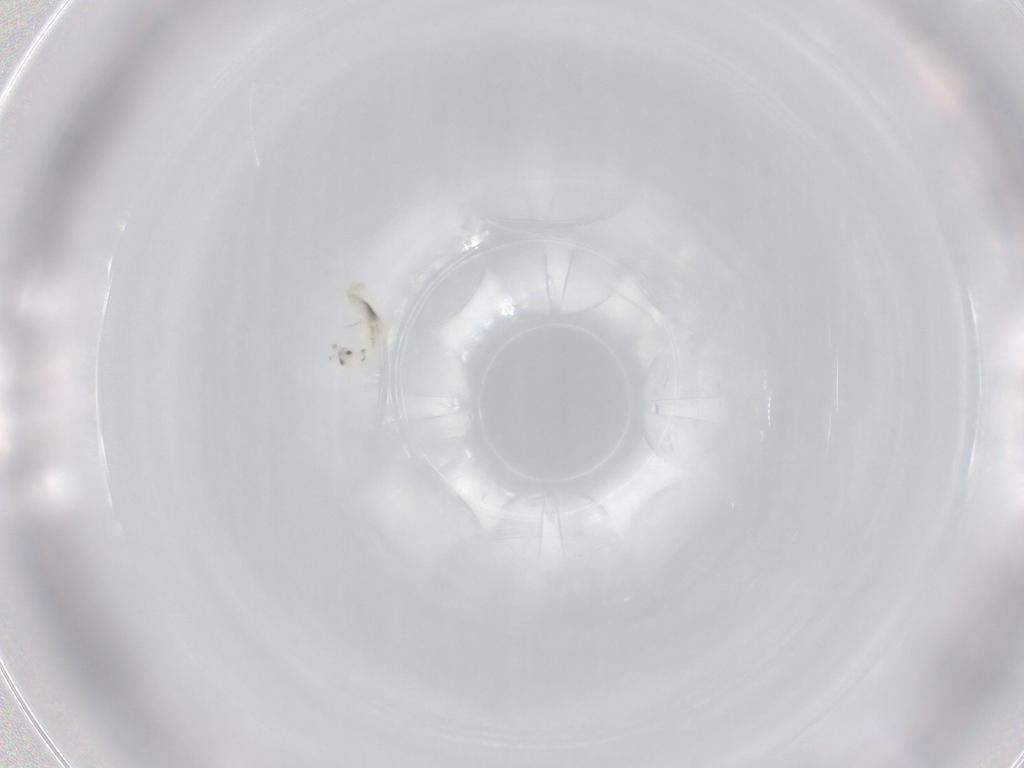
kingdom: Animalia
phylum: Arthropoda
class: Collembola
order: Entomobryomorpha
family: Entomobryidae
